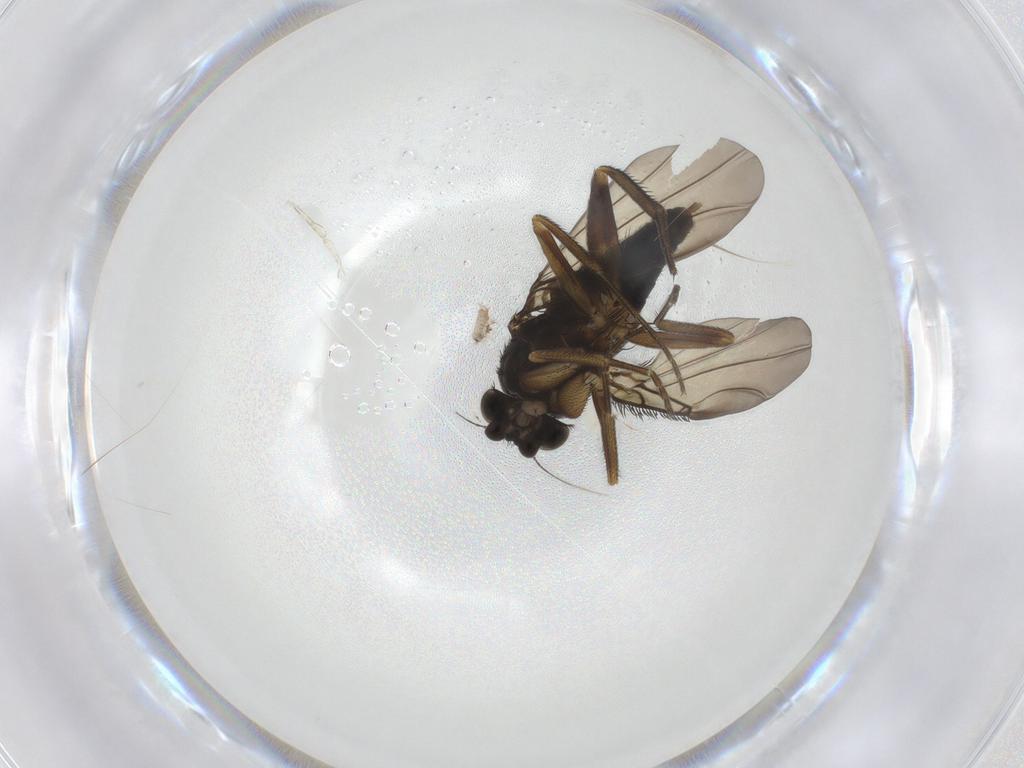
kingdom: Animalia
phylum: Arthropoda
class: Insecta
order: Diptera
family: Phoridae
